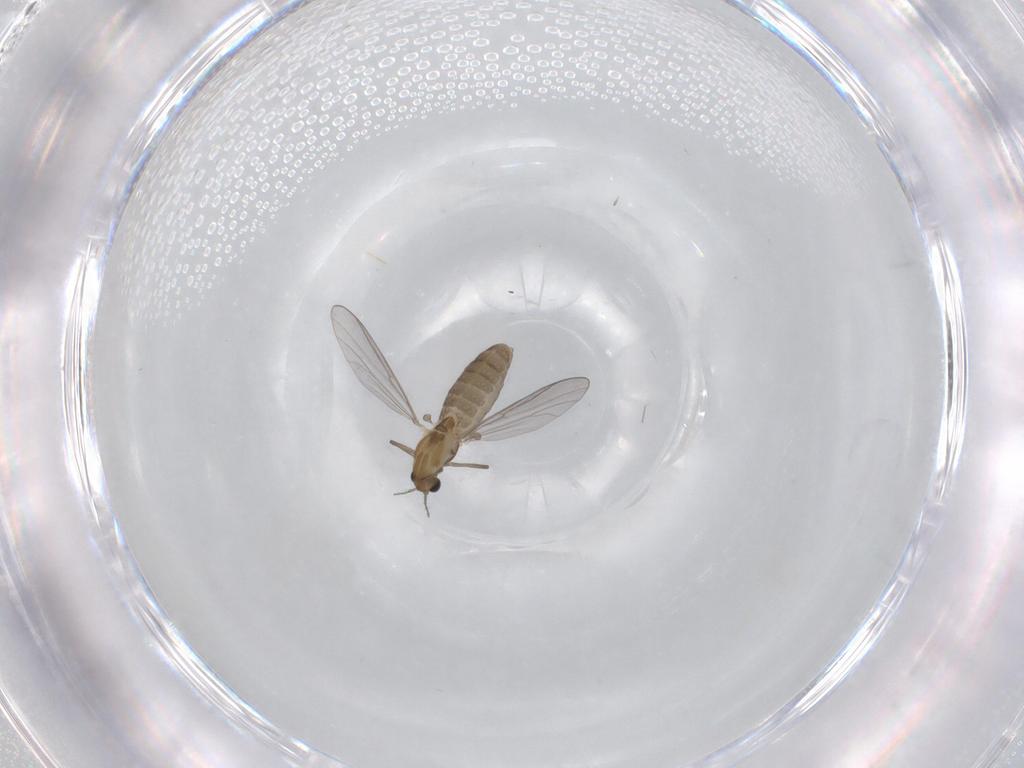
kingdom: Animalia
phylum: Arthropoda
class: Insecta
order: Diptera
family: Chironomidae
